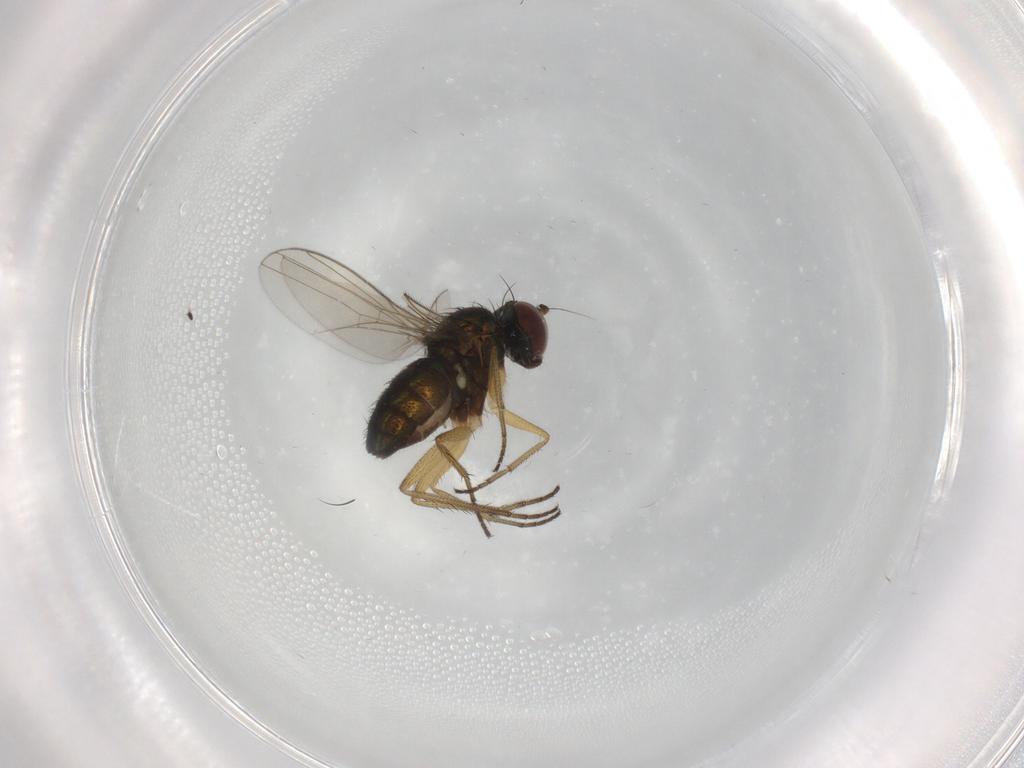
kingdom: Animalia
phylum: Arthropoda
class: Insecta
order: Diptera
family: Dolichopodidae
